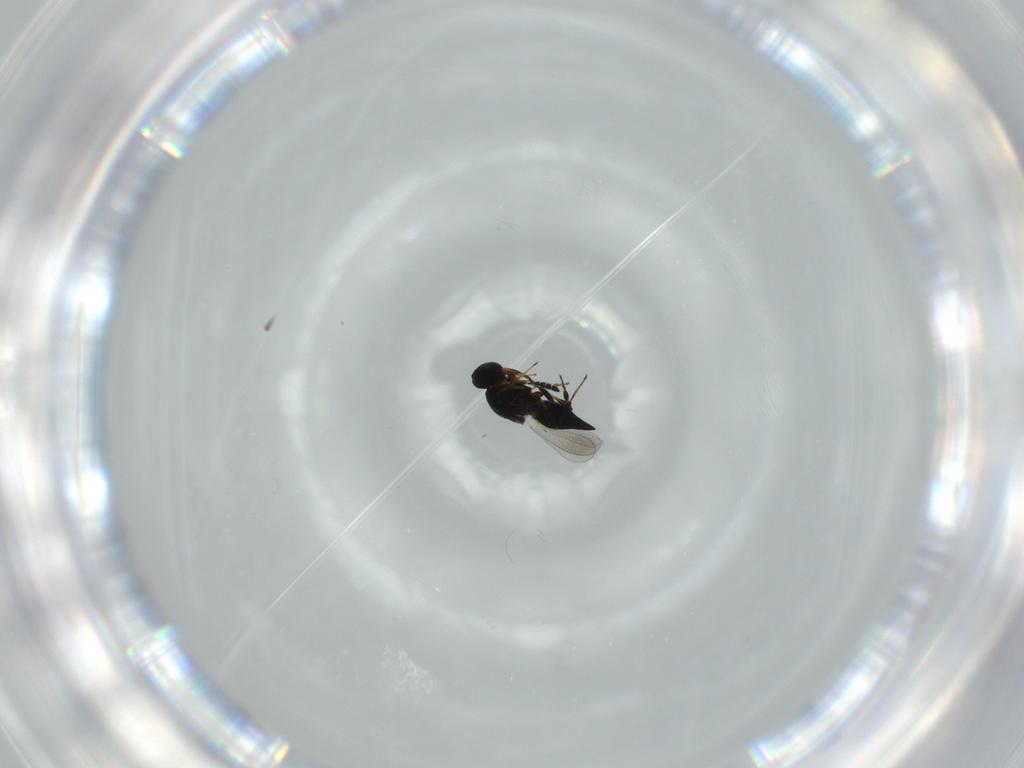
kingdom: Animalia
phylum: Arthropoda
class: Insecta
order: Hymenoptera
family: Platygastridae
